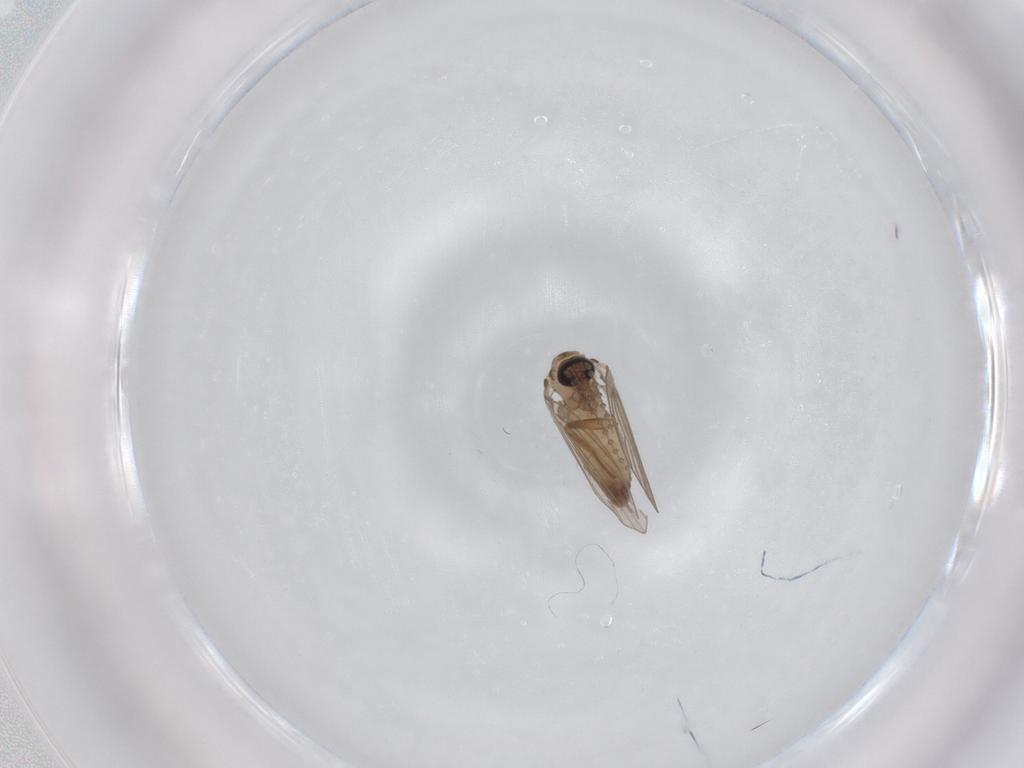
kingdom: Animalia
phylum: Arthropoda
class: Insecta
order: Diptera
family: Psychodidae
